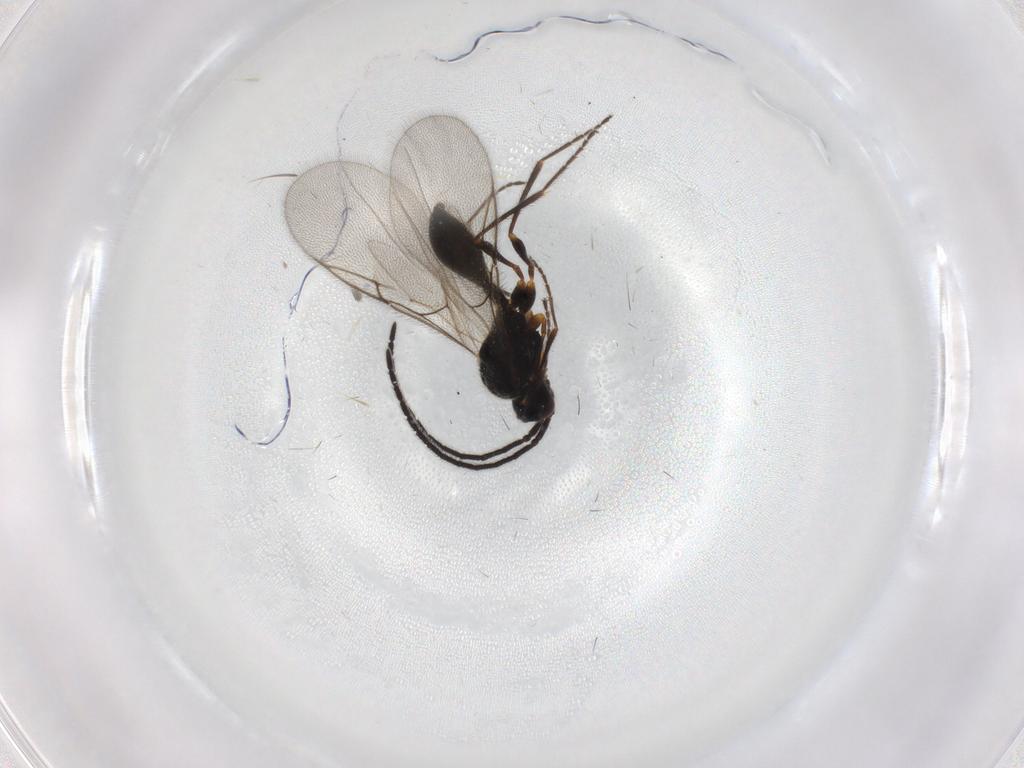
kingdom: Animalia
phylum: Arthropoda
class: Insecta
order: Hymenoptera
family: Diapriidae
